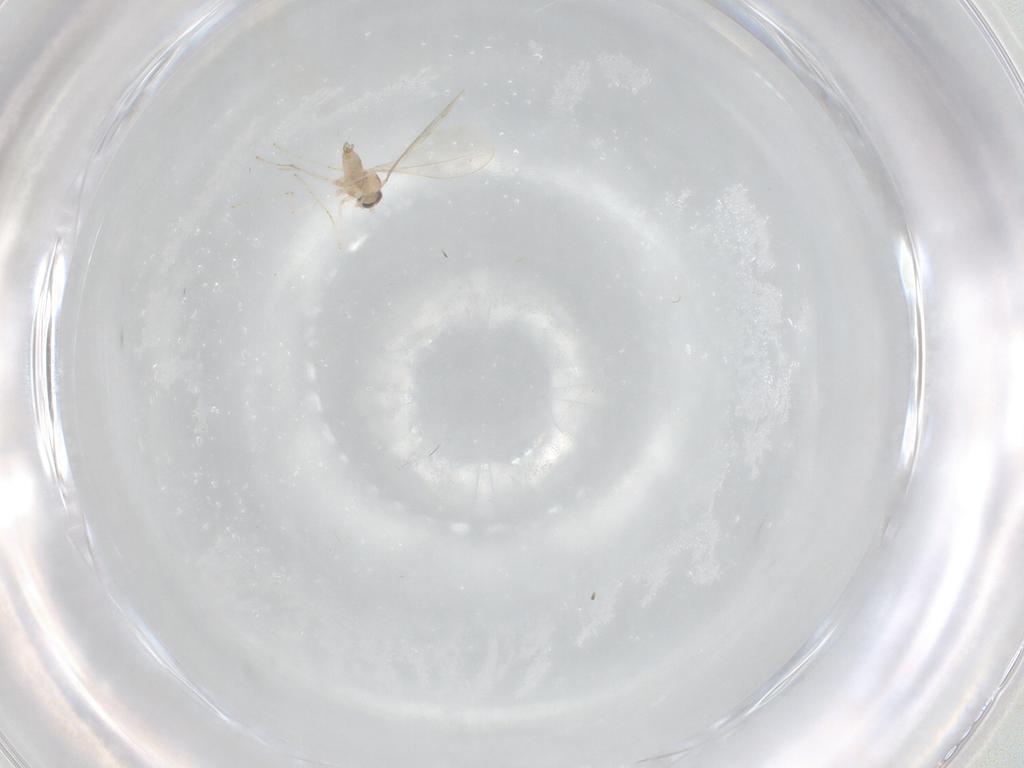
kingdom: Animalia
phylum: Arthropoda
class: Insecta
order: Diptera
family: Cecidomyiidae
